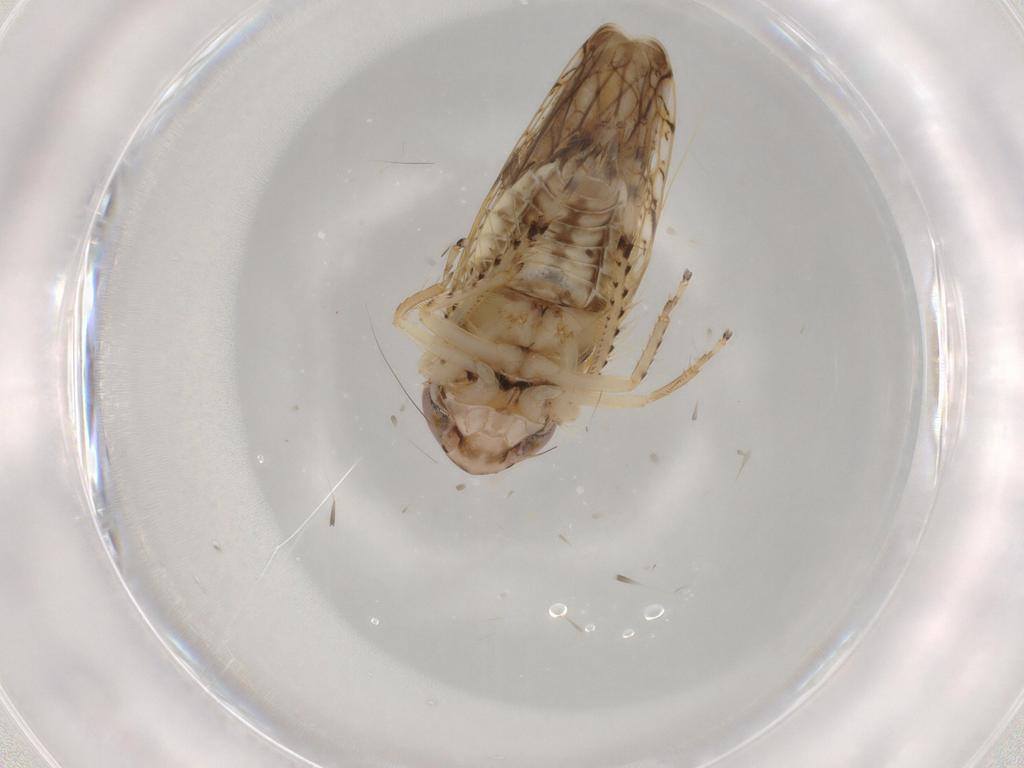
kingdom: Animalia
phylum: Arthropoda
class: Insecta
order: Hemiptera
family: Cicadellidae
